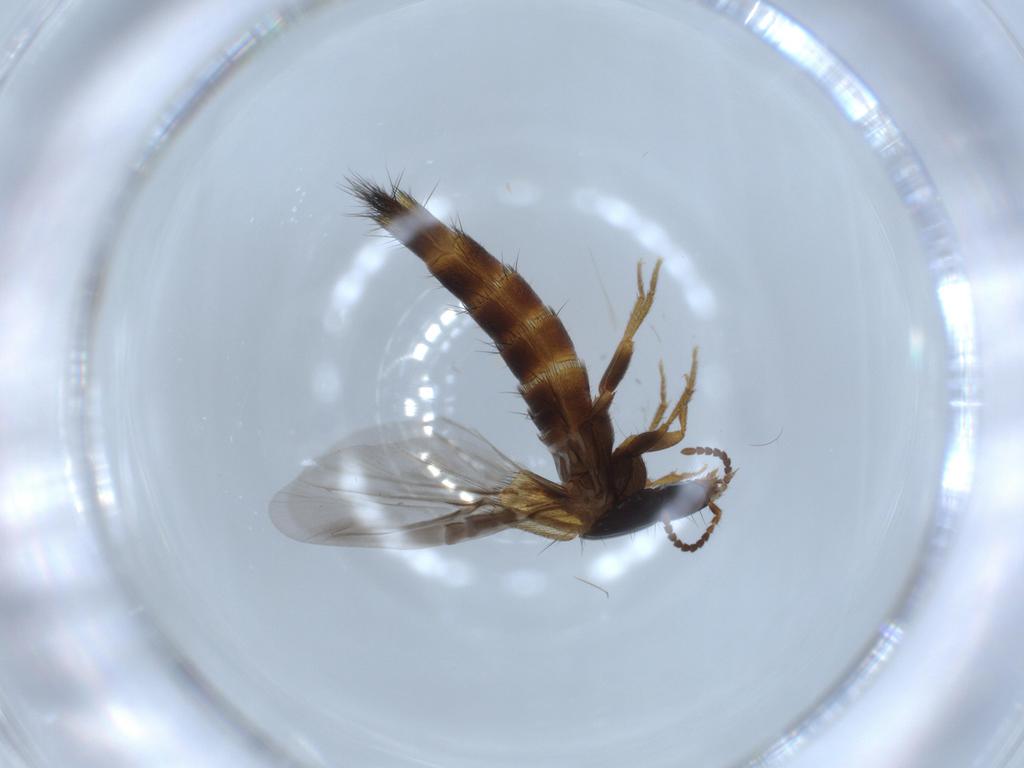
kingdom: Animalia
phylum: Arthropoda
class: Insecta
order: Coleoptera
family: Staphylinidae
